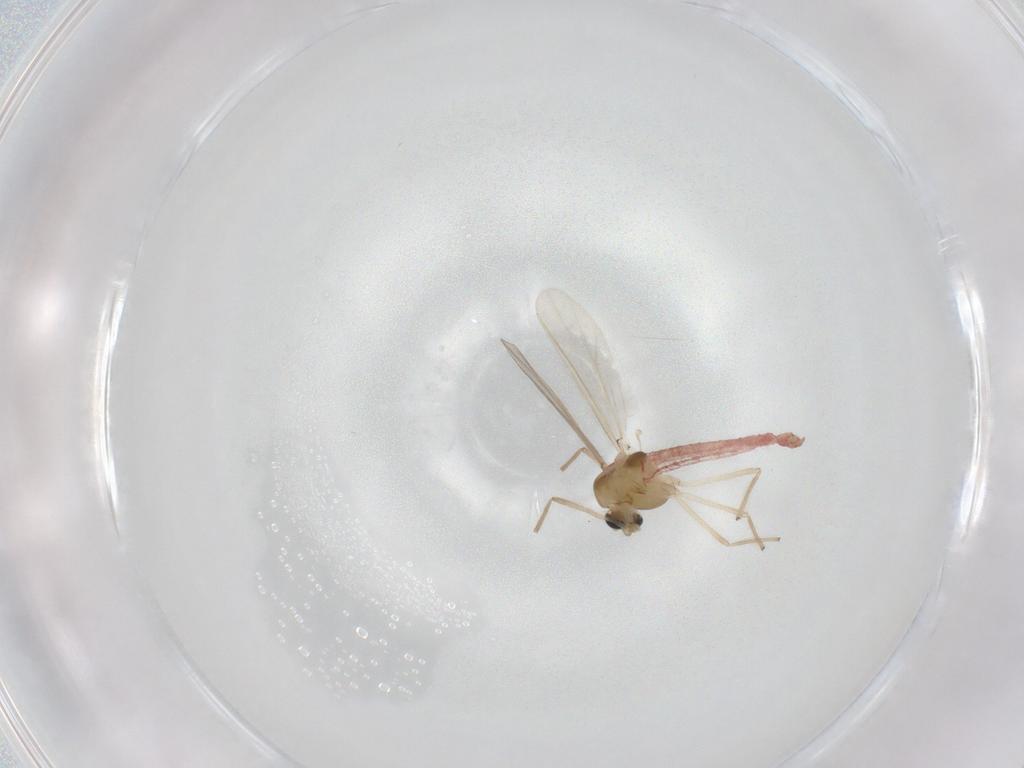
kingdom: Animalia
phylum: Arthropoda
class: Insecta
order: Diptera
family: Chironomidae
